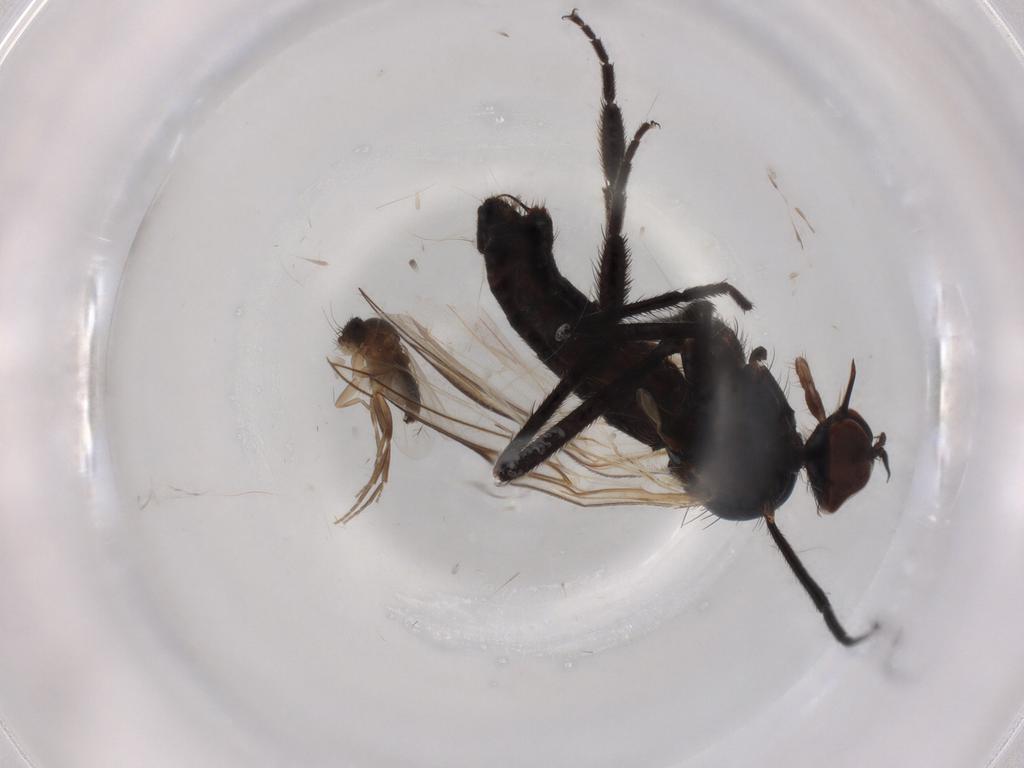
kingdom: Animalia
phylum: Arthropoda
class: Insecta
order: Diptera
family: Empididae
